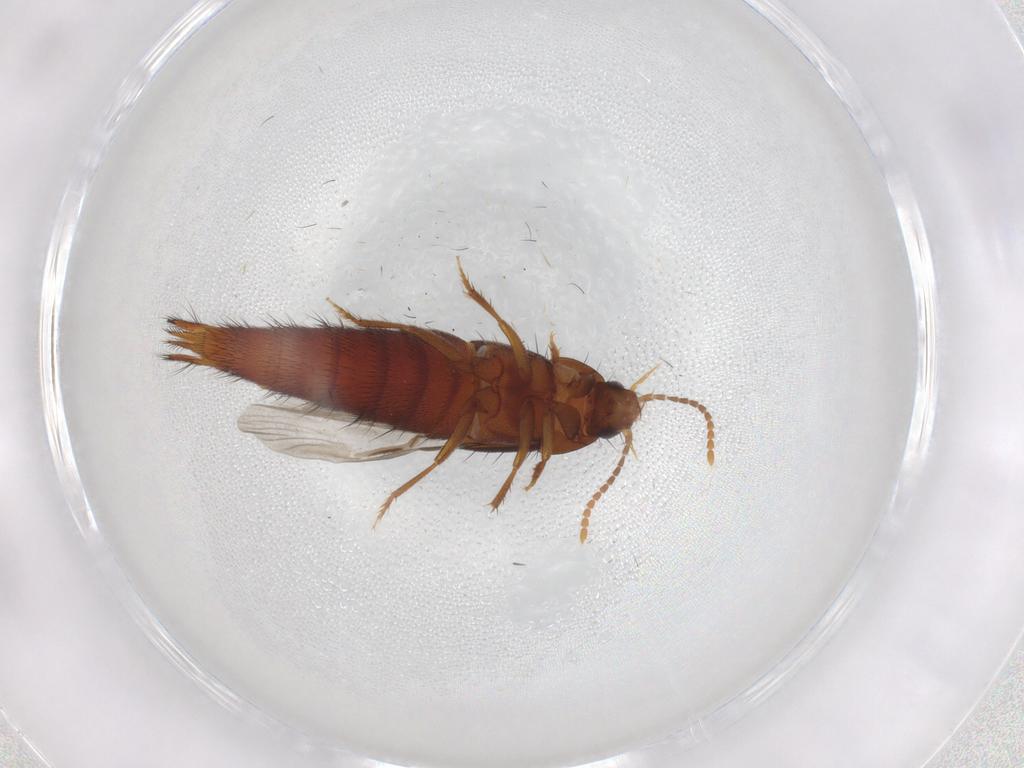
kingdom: Animalia
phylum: Arthropoda
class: Insecta
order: Coleoptera
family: Staphylinidae
